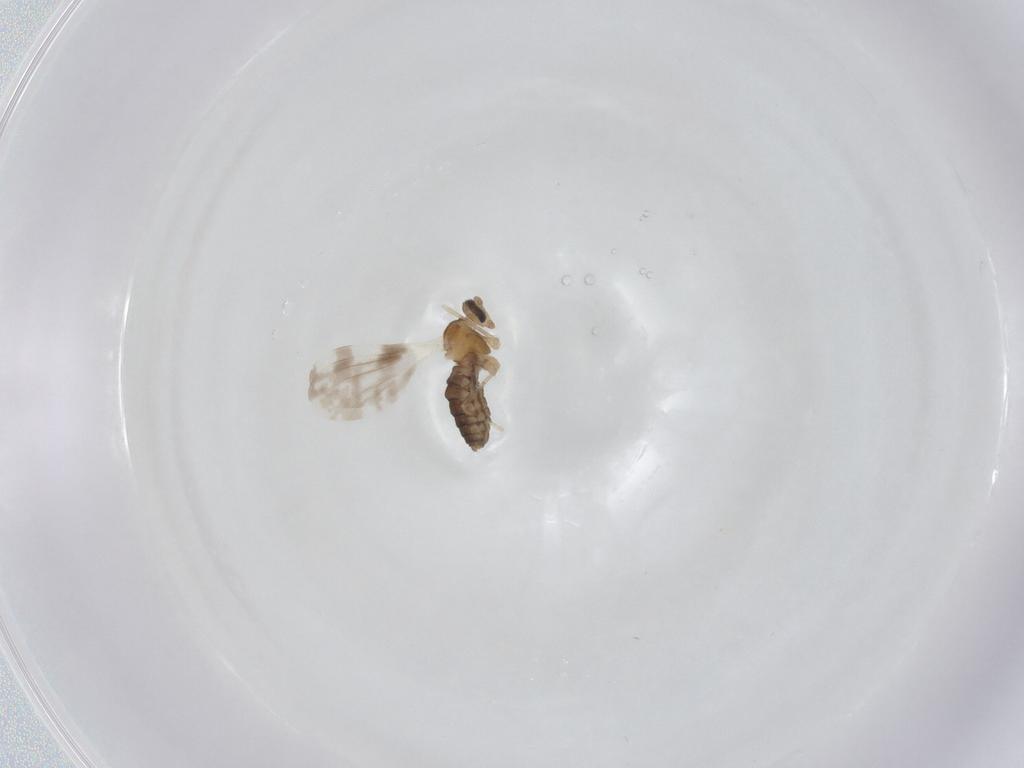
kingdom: Animalia
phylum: Arthropoda
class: Insecta
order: Diptera
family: Cecidomyiidae
